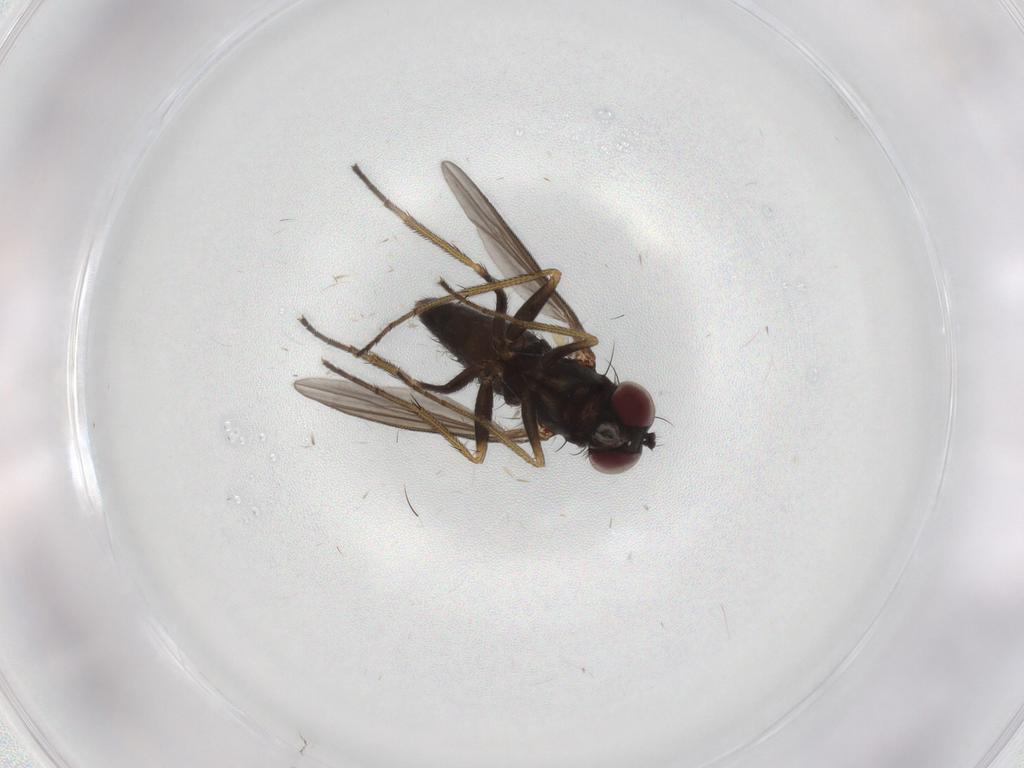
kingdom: Animalia
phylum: Arthropoda
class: Insecta
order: Diptera
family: Dolichopodidae
